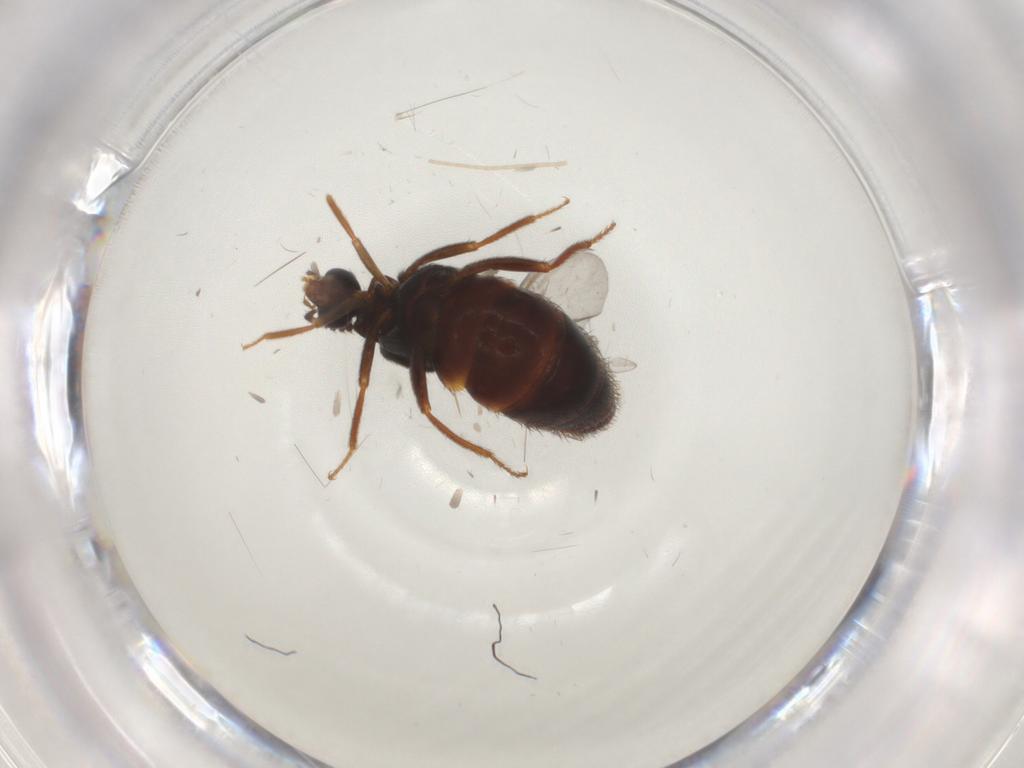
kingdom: Animalia
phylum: Arthropoda
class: Insecta
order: Coleoptera
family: Staphylinidae
